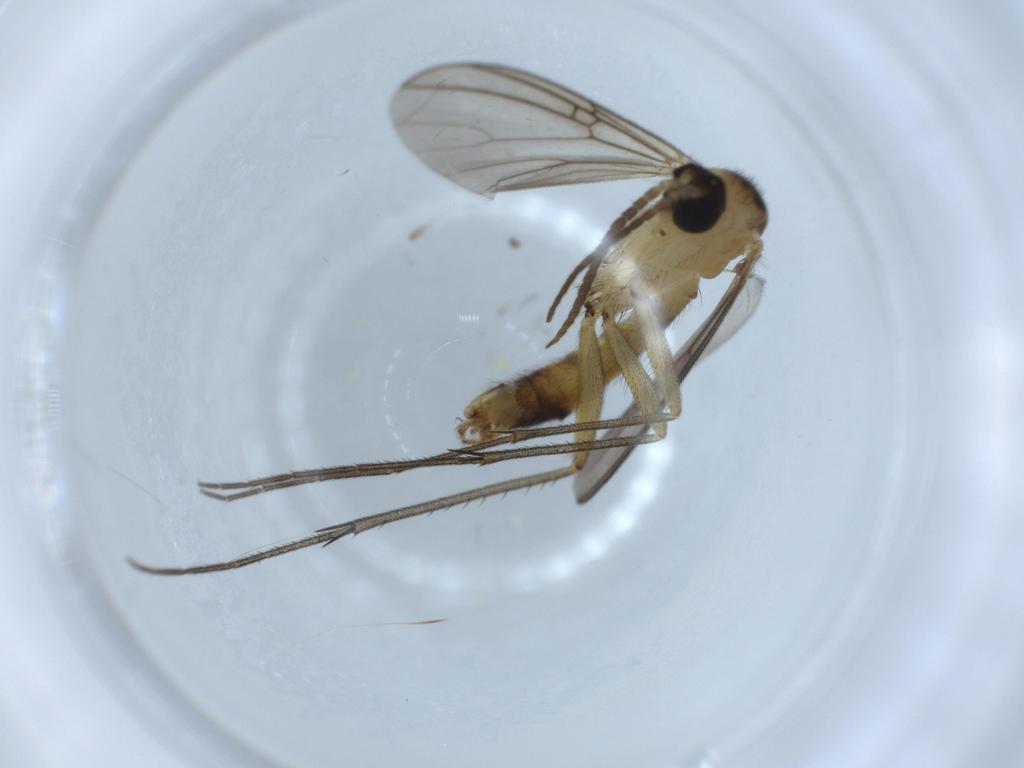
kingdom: Animalia
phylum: Arthropoda
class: Insecta
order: Diptera
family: Mycetophilidae
